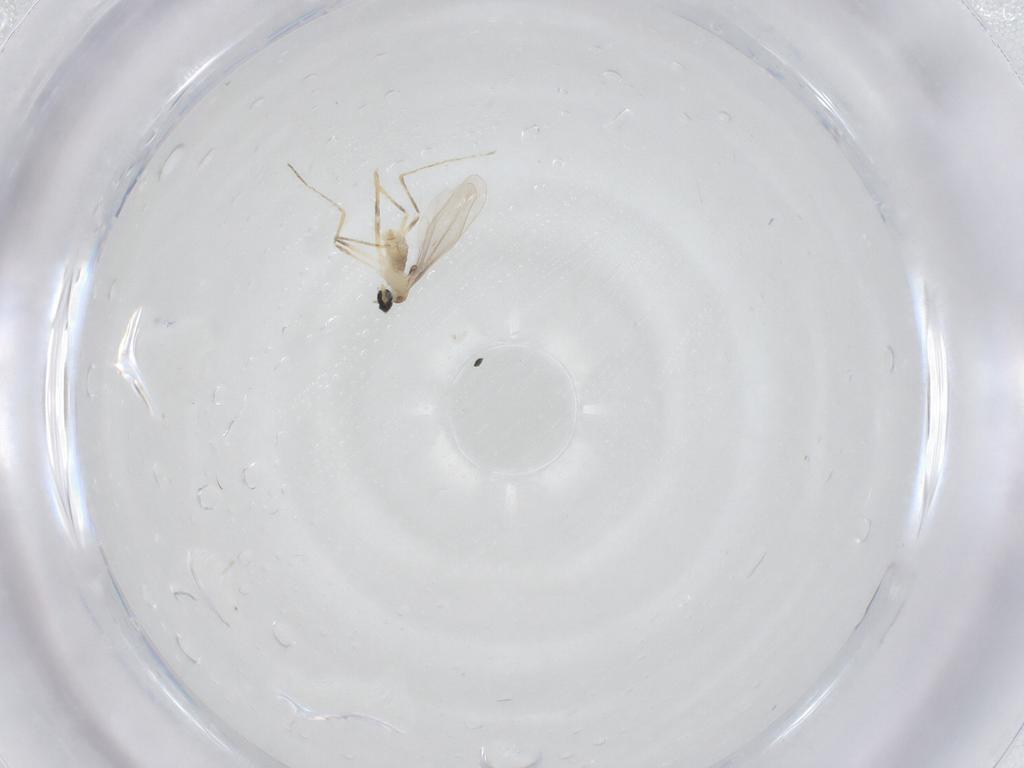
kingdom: Animalia
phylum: Arthropoda
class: Insecta
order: Diptera
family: Chironomidae
